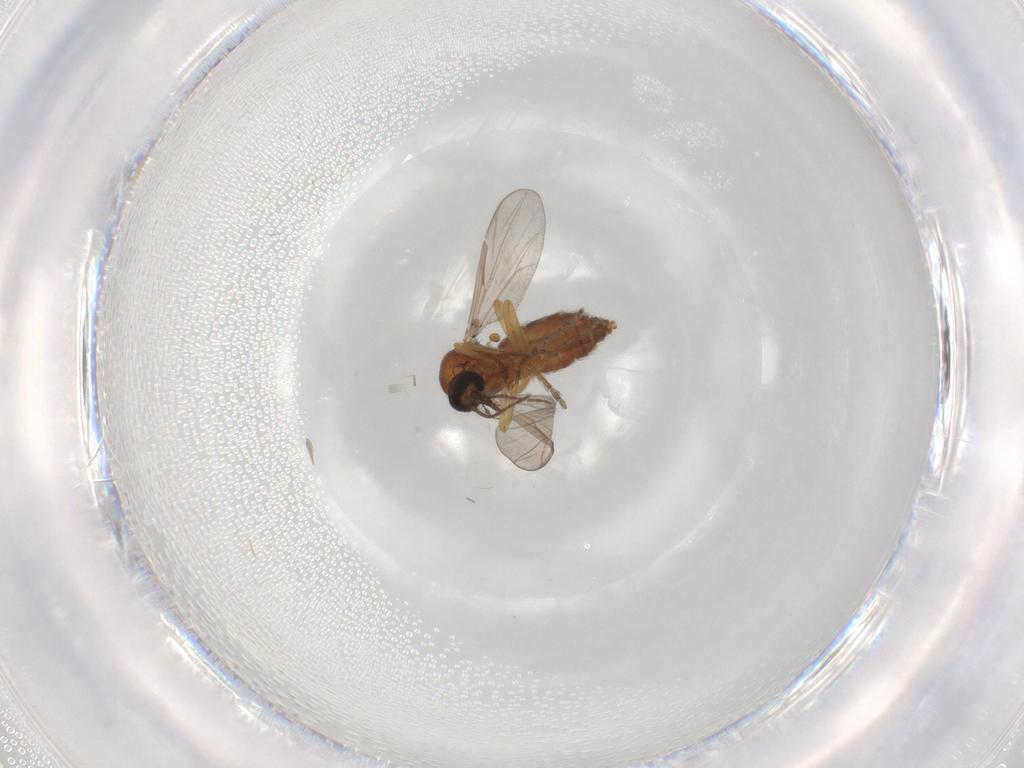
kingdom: Animalia
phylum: Arthropoda
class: Insecta
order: Diptera
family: Ceratopogonidae
